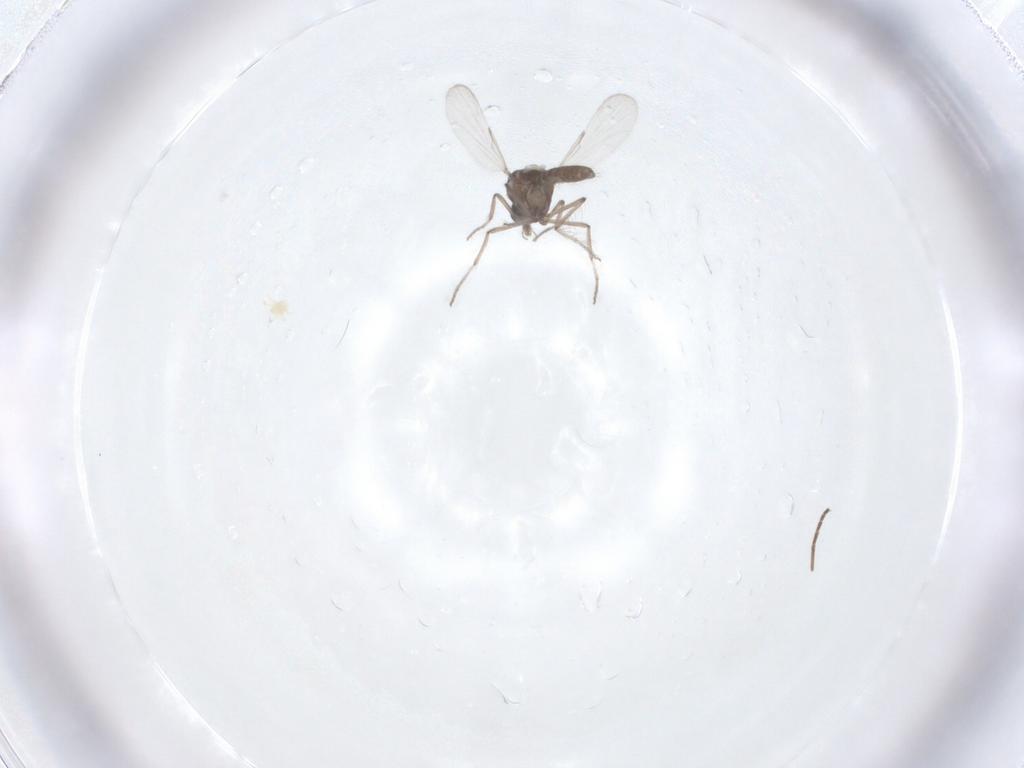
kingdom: Animalia
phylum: Arthropoda
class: Insecta
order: Diptera
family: Ceratopogonidae
